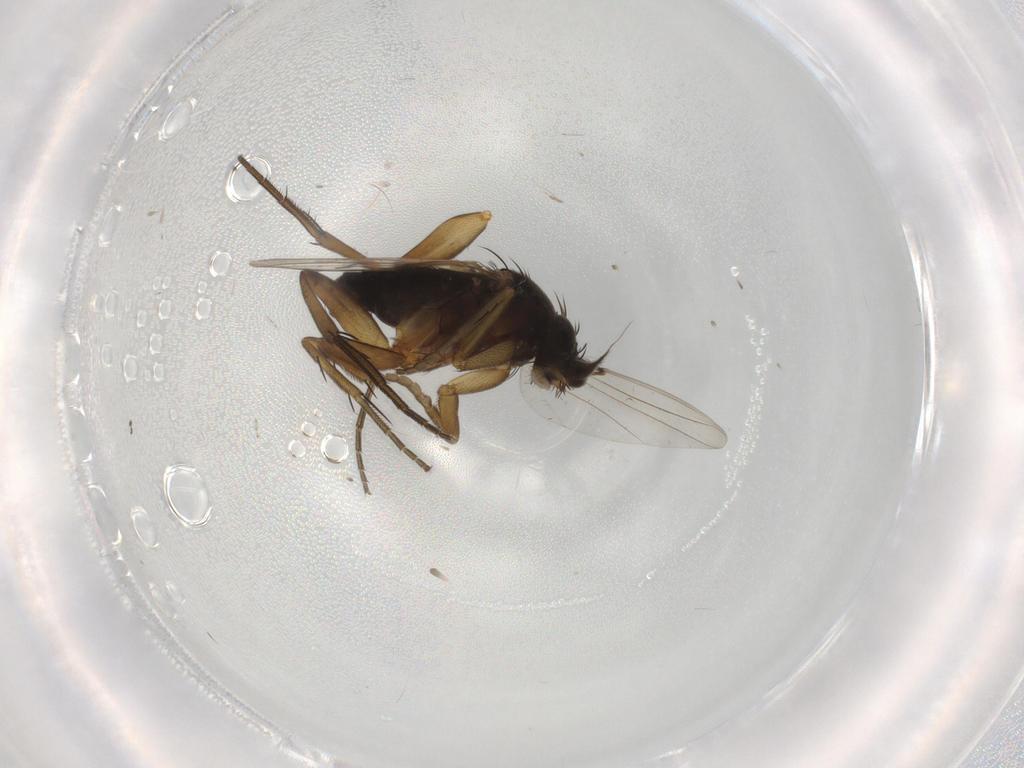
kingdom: Animalia
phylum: Arthropoda
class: Insecta
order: Diptera
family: Phoridae
